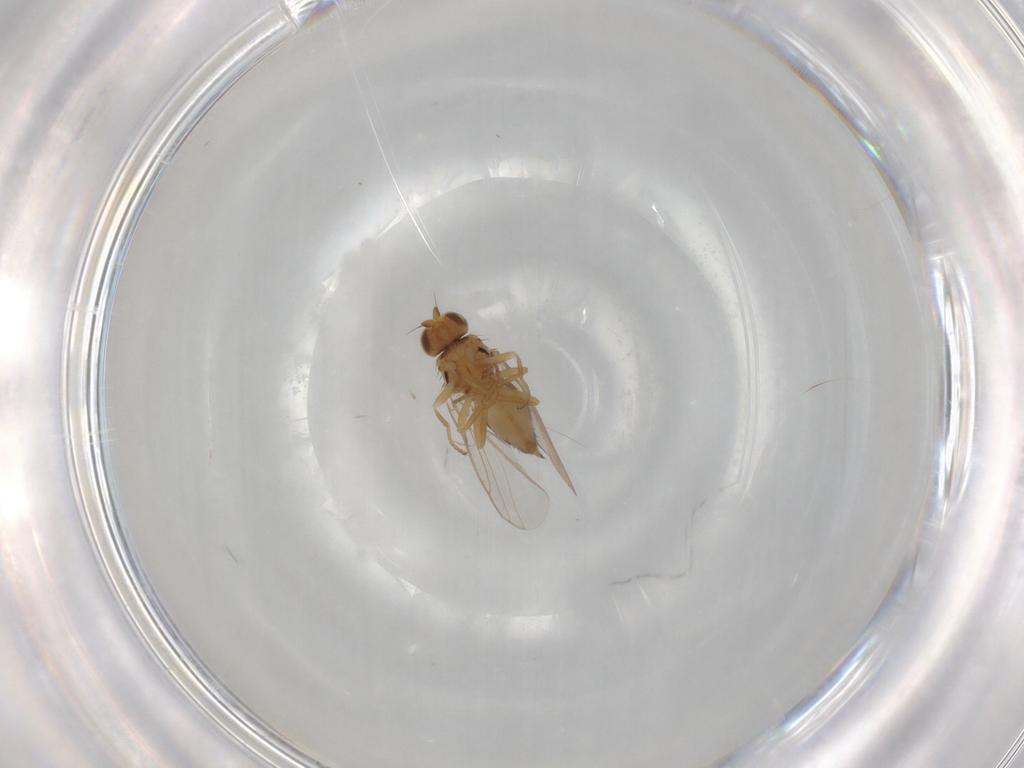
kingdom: Animalia
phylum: Arthropoda
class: Insecta
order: Diptera
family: Chloropidae
